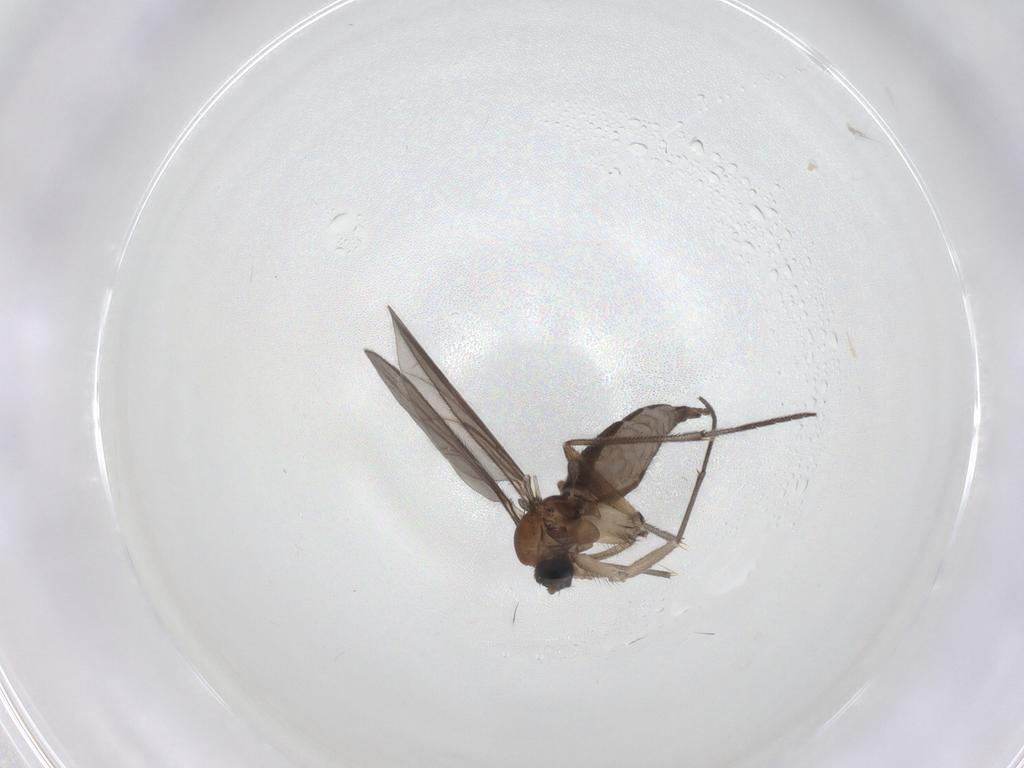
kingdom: Animalia
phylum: Arthropoda
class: Insecta
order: Diptera
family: Sciaridae
